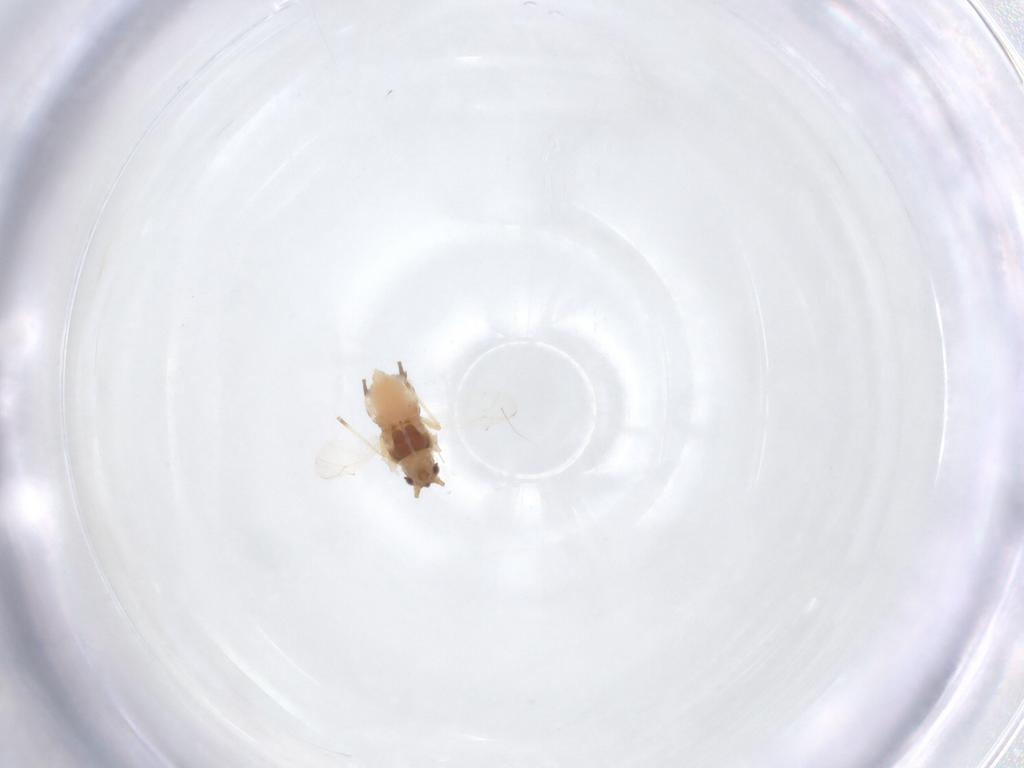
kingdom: Animalia
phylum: Arthropoda
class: Insecta
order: Hemiptera
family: Aphididae
